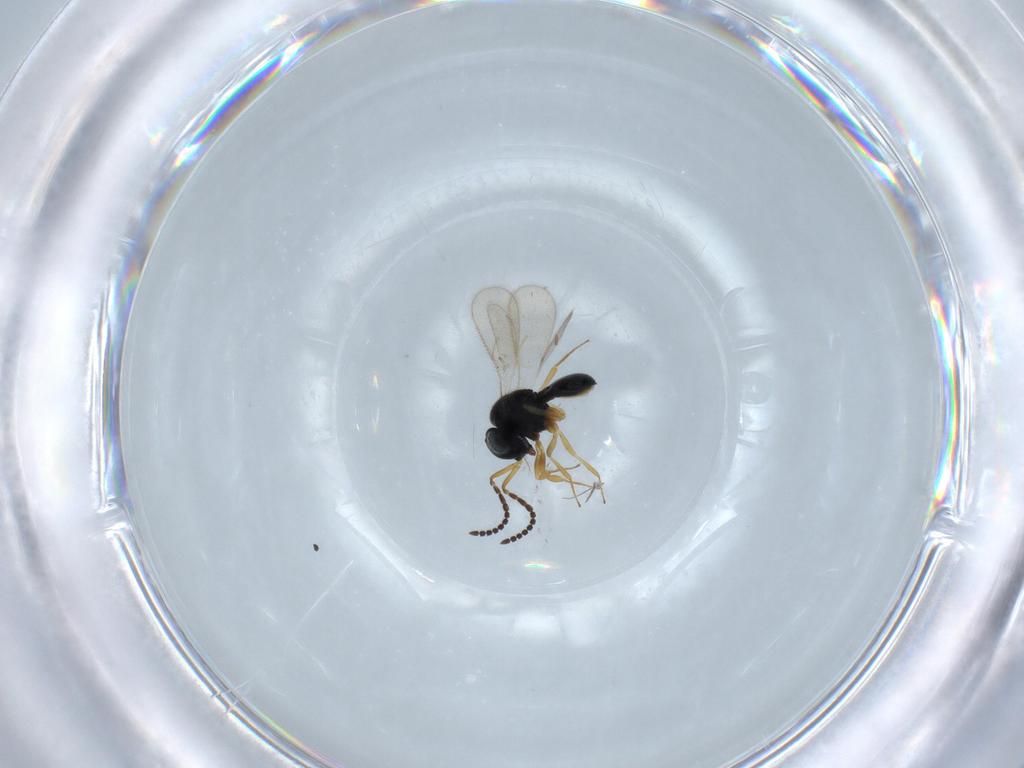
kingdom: Animalia
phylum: Arthropoda
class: Insecta
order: Hymenoptera
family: Scelionidae
